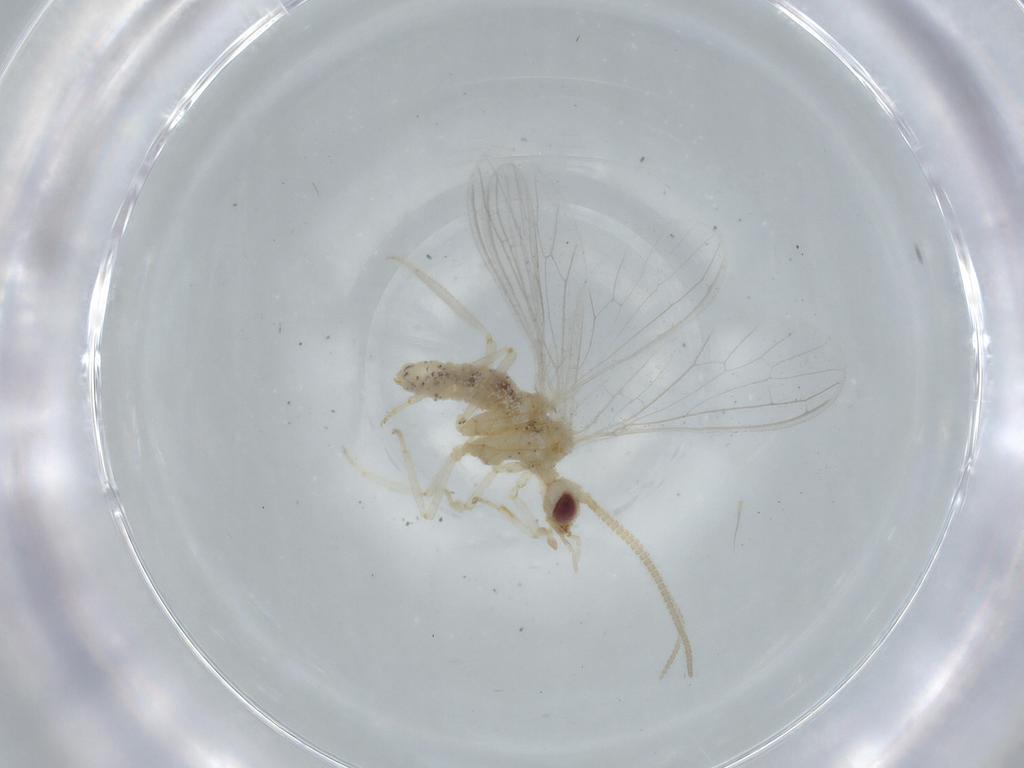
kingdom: Animalia
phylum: Arthropoda
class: Insecta
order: Neuroptera
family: Coniopterygidae
